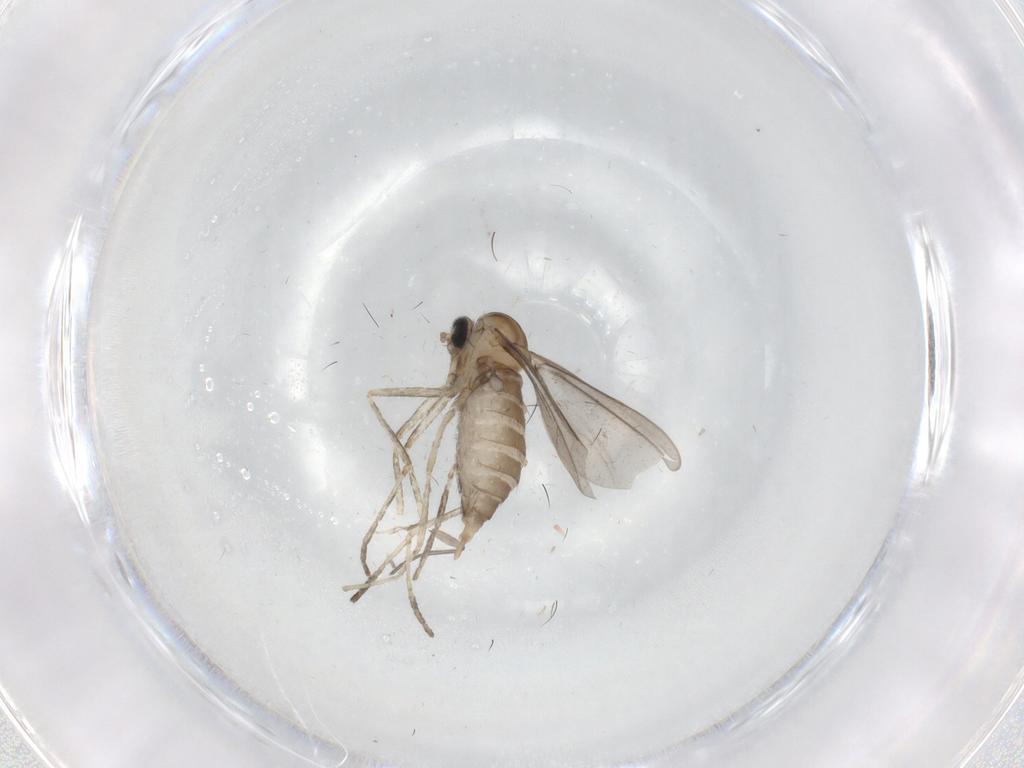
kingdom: Animalia
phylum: Arthropoda
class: Insecta
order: Diptera
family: Cecidomyiidae
